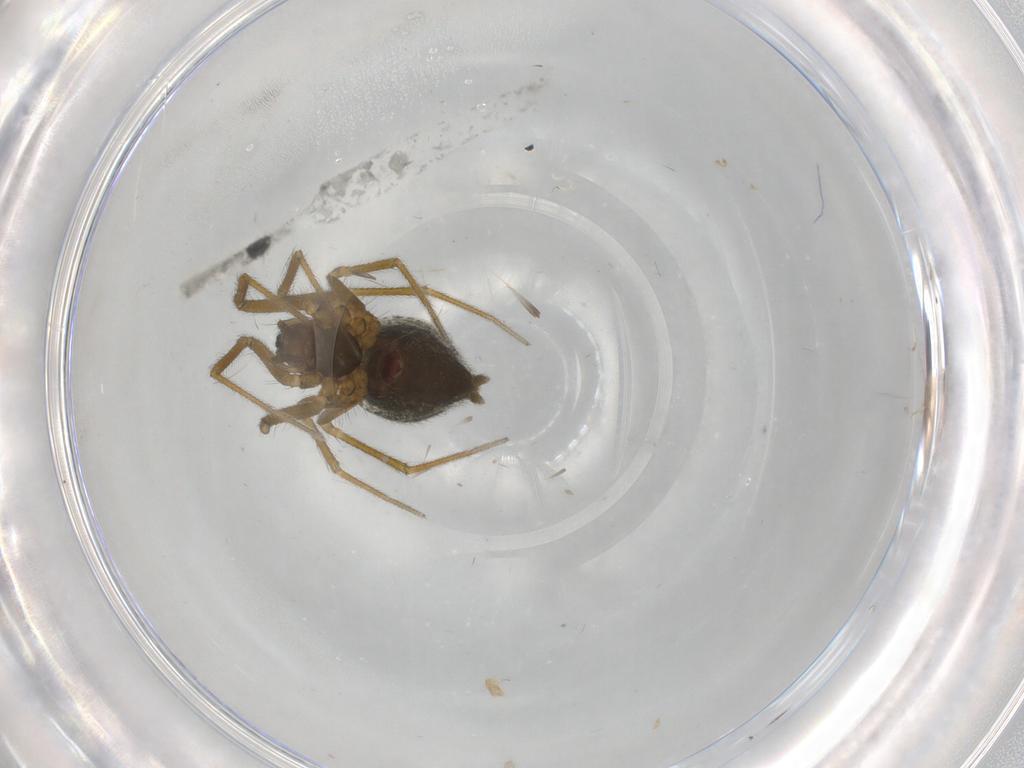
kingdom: Animalia
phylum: Arthropoda
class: Arachnida
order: Araneae
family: Linyphiidae
